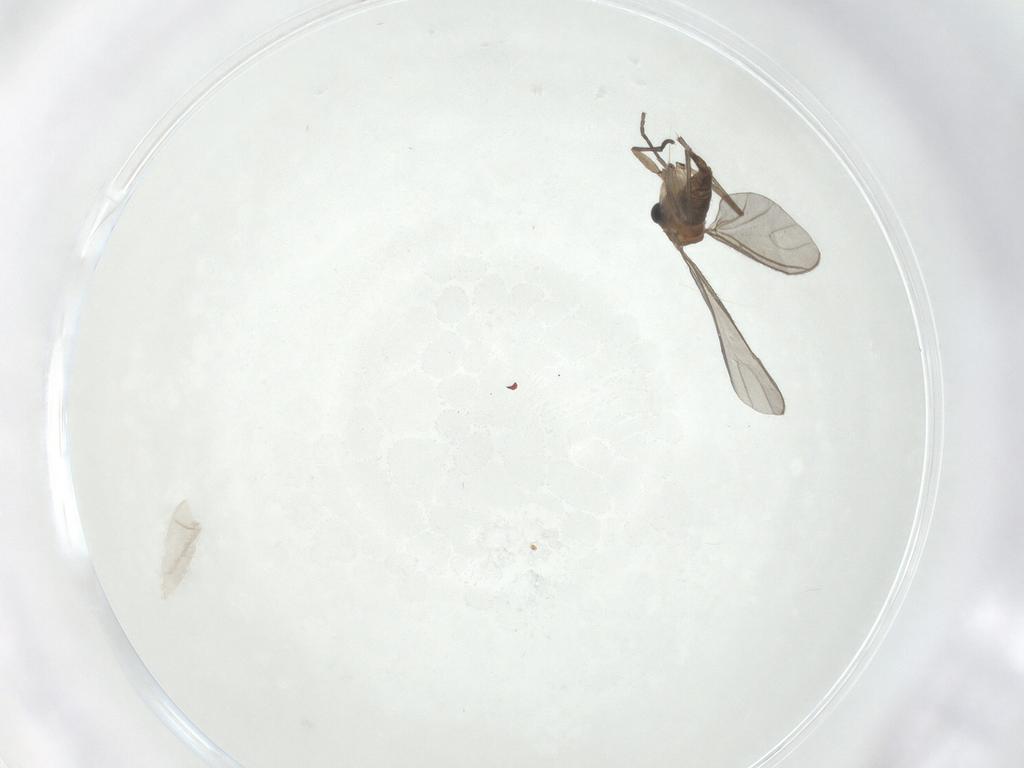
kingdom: Animalia
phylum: Arthropoda
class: Insecta
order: Diptera
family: Sciaridae
